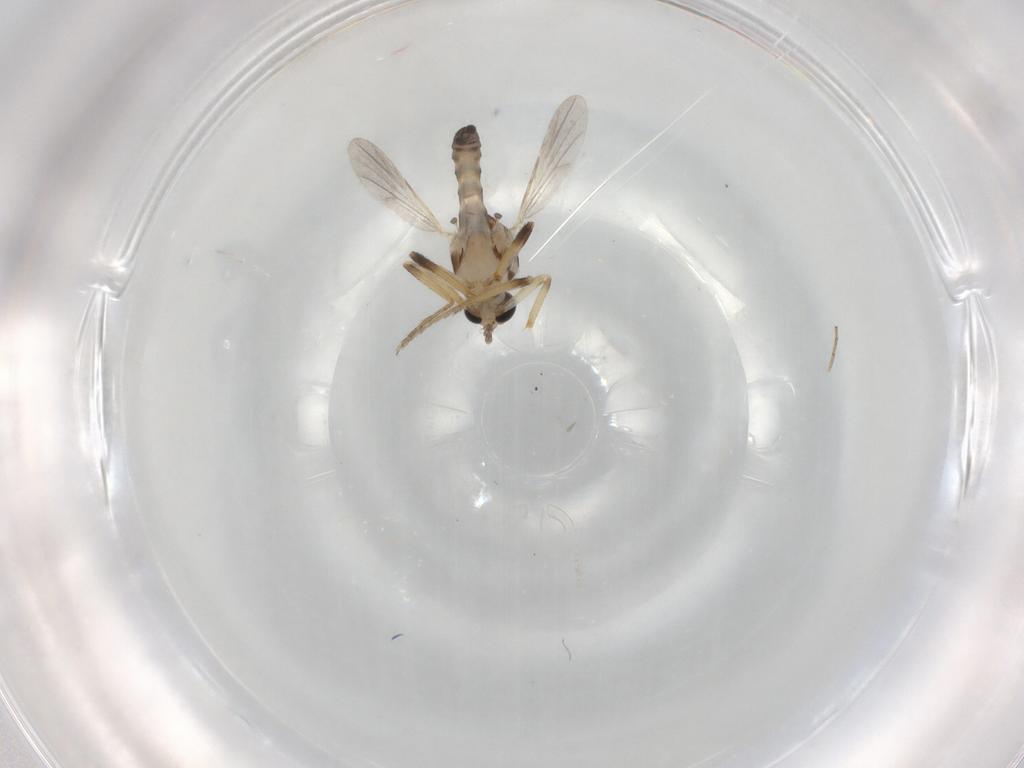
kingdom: Animalia
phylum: Arthropoda
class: Insecta
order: Diptera
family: Ceratopogonidae
